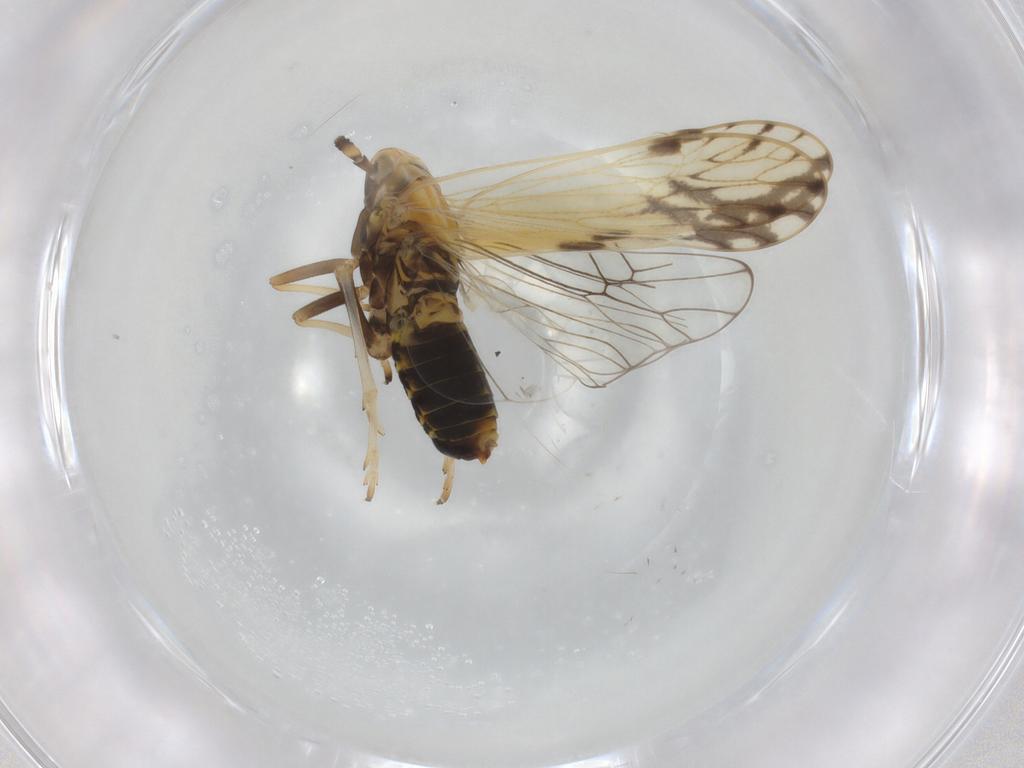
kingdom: Animalia
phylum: Arthropoda
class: Insecta
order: Hemiptera
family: Delphacidae
